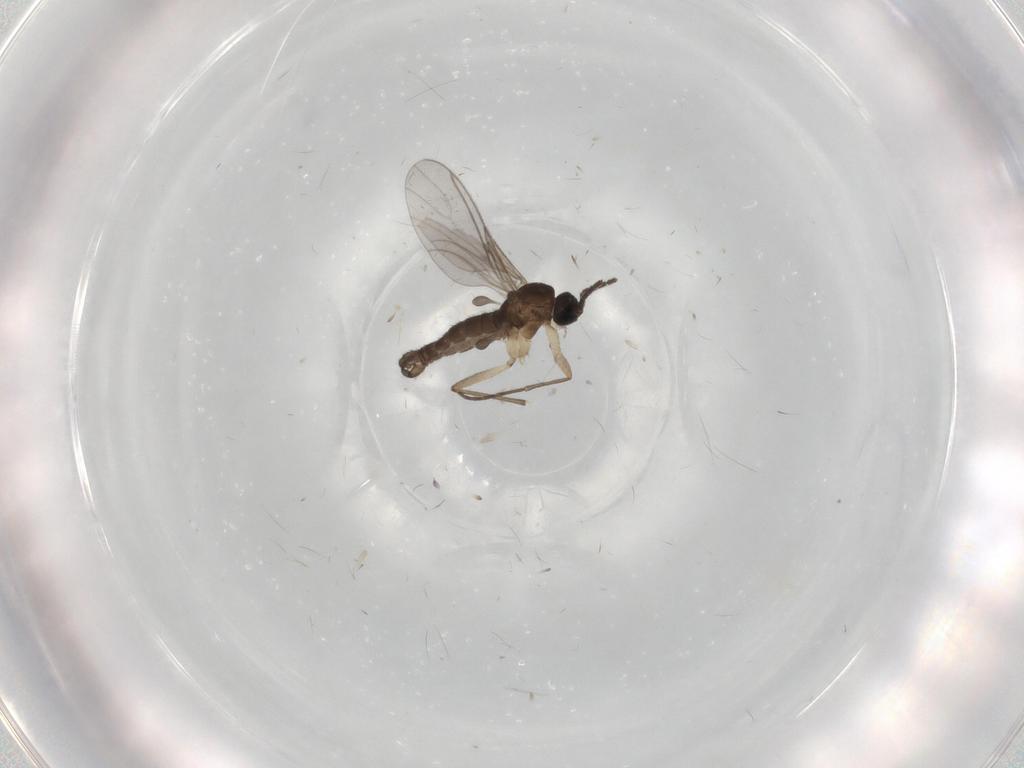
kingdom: Animalia
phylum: Arthropoda
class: Insecta
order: Diptera
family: Sciaridae
